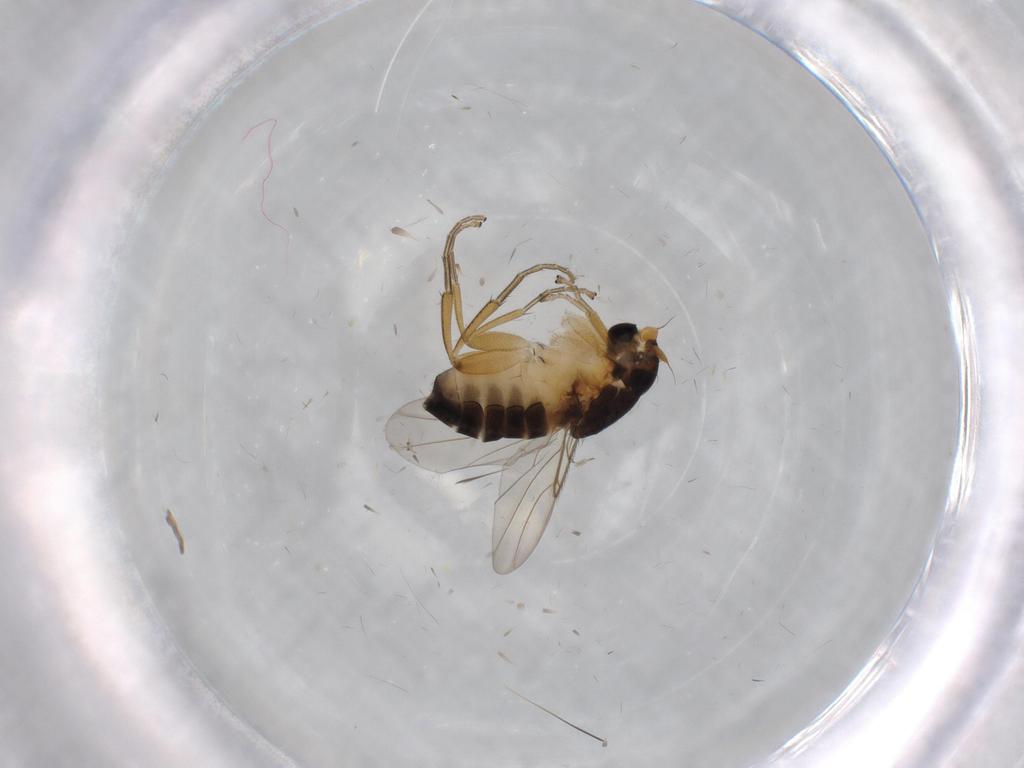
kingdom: Animalia
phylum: Arthropoda
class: Insecta
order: Diptera
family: Phoridae
